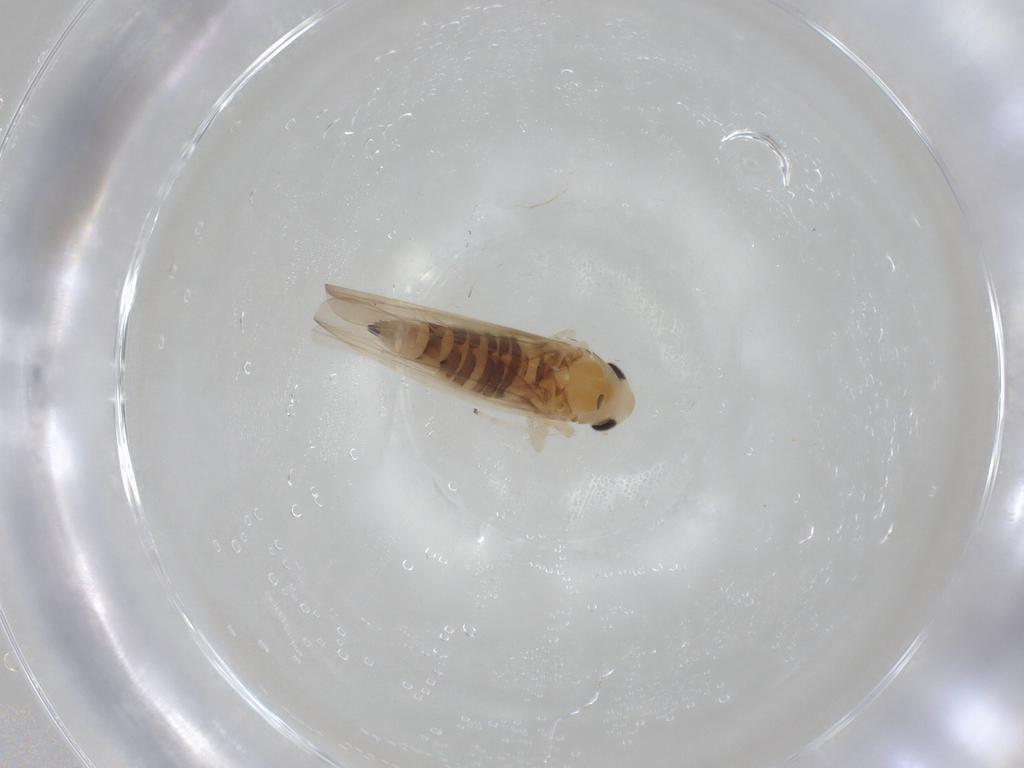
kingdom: Animalia
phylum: Arthropoda
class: Insecta
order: Hemiptera
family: Cicadellidae
